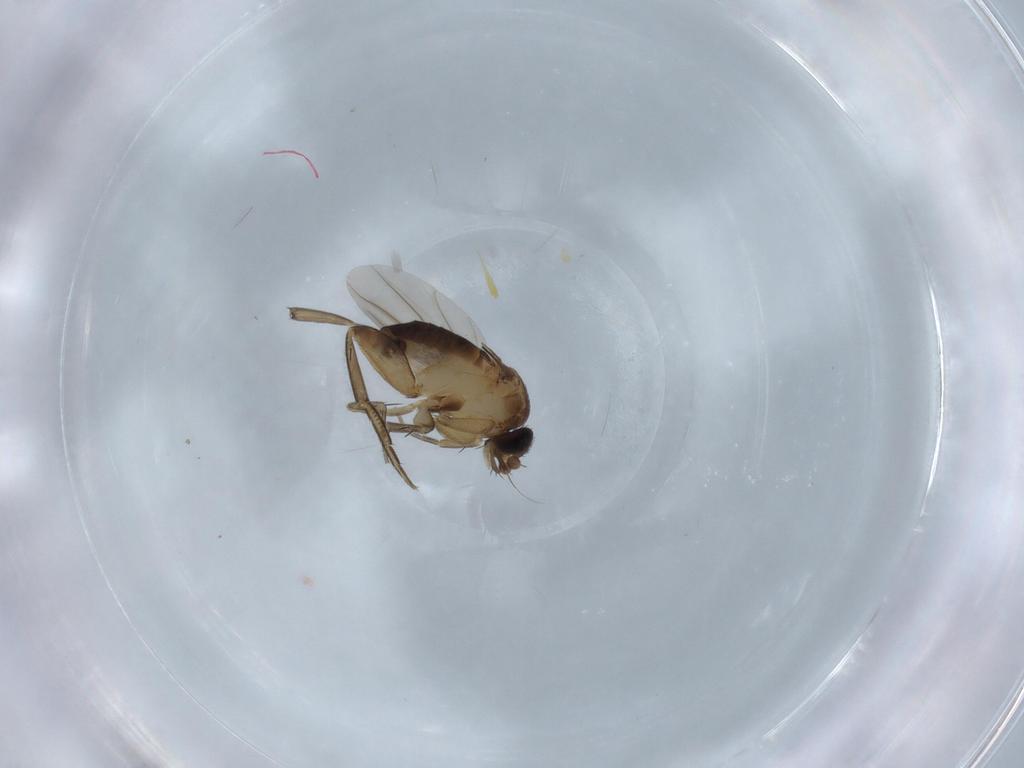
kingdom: Animalia
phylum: Arthropoda
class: Insecta
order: Diptera
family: Phoridae
